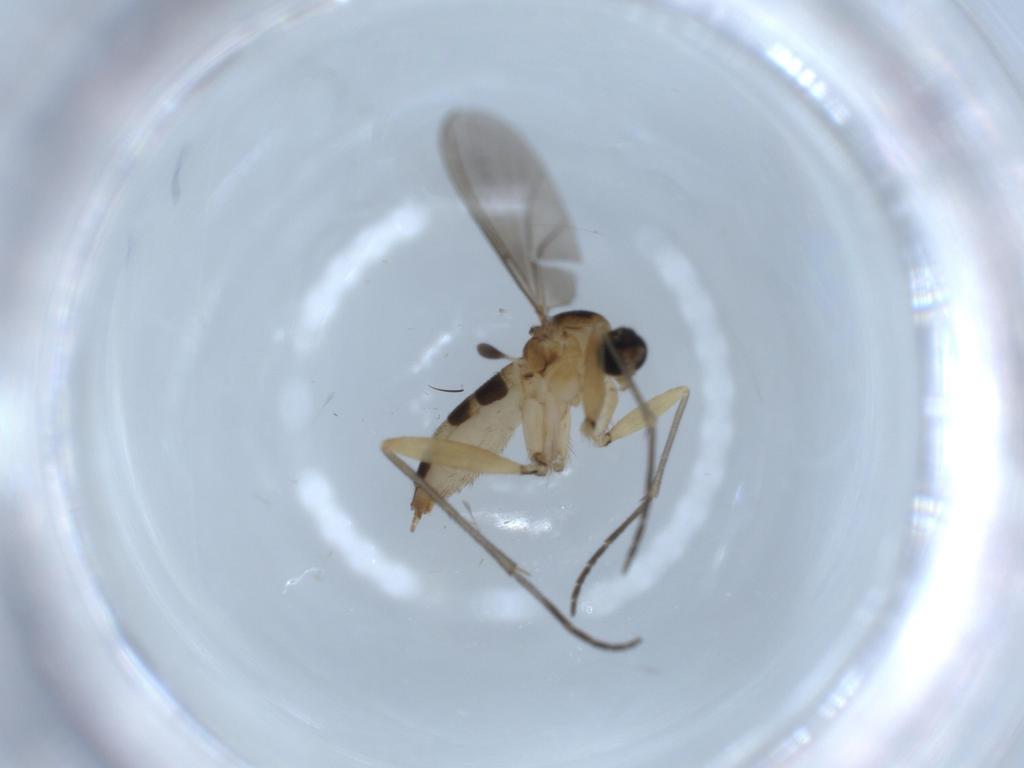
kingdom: Animalia
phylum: Arthropoda
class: Insecta
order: Diptera
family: Sciaridae
